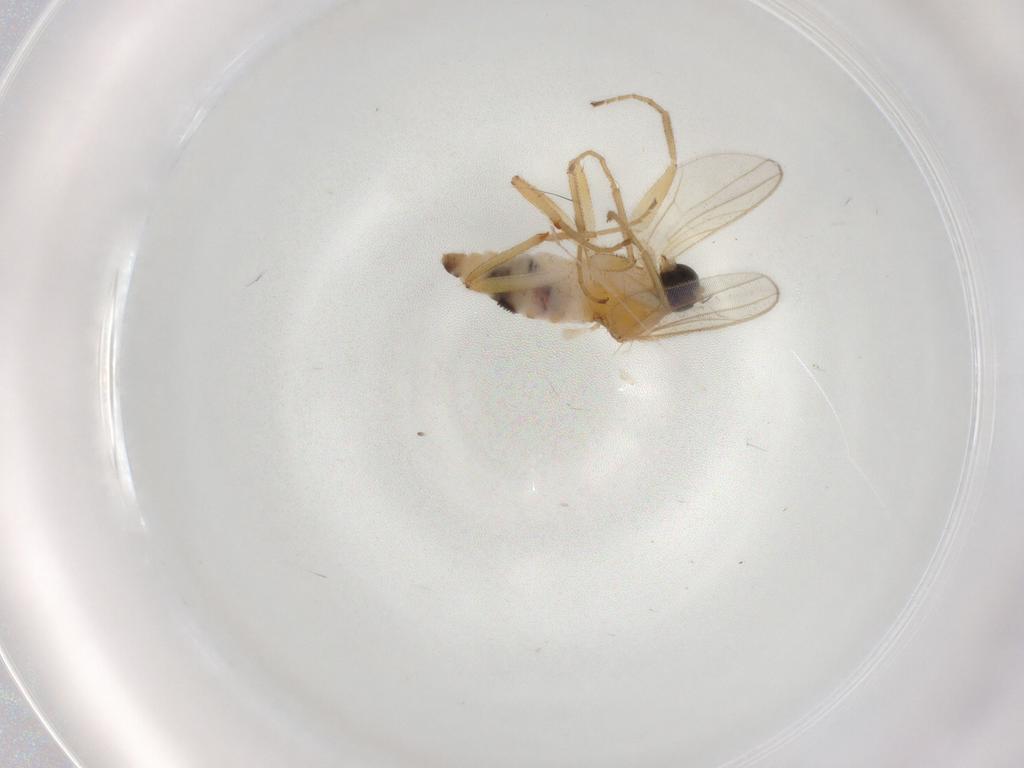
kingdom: Animalia
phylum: Arthropoda
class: Insecta
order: Diptera
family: Hybotidae
